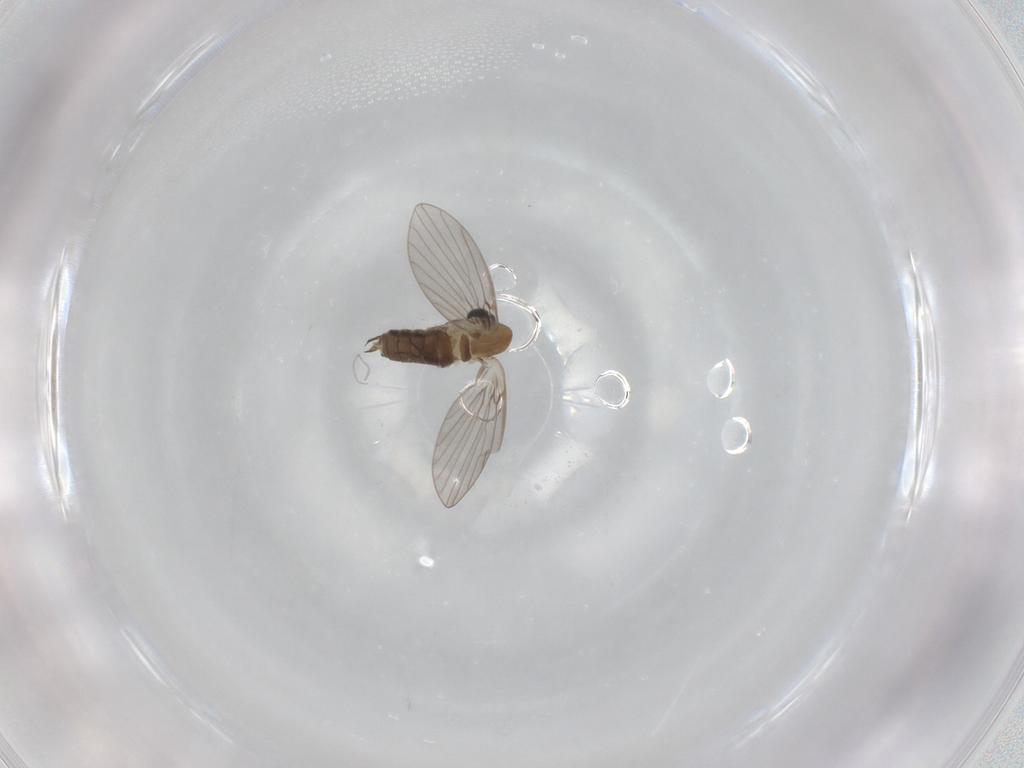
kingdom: Animalia
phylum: Arthropoda
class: Insecta
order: Diptera
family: Psychodidae
